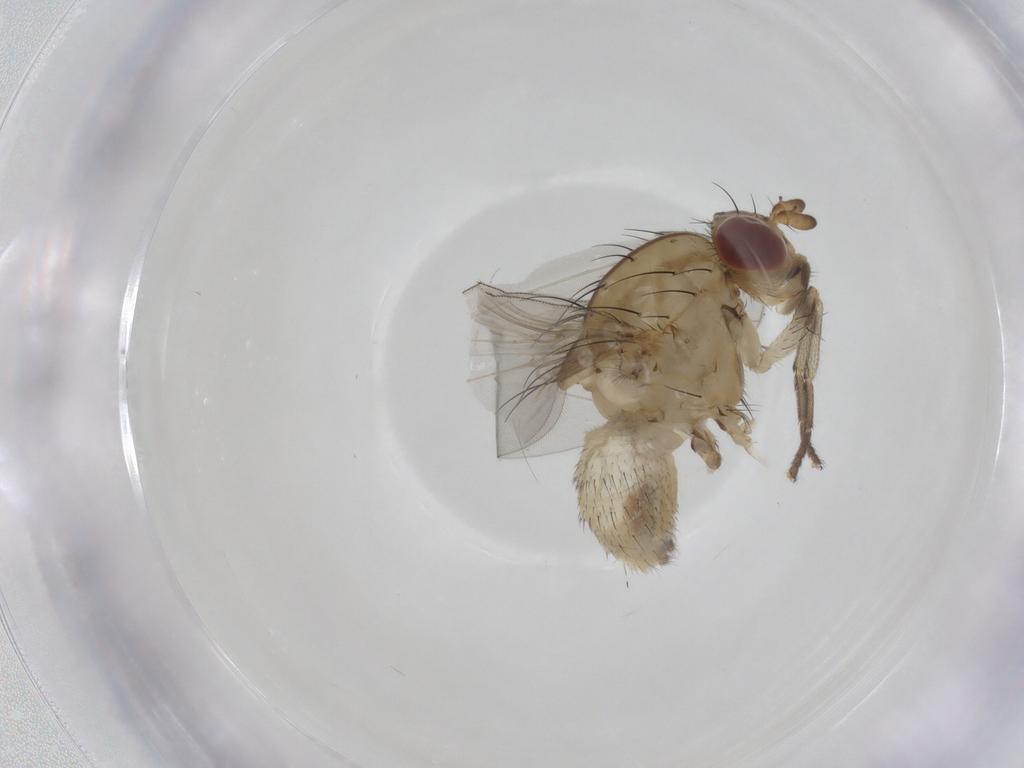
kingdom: Animalia
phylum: Arthropoda
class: Insecta
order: Diptera
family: Lauxaniidae
